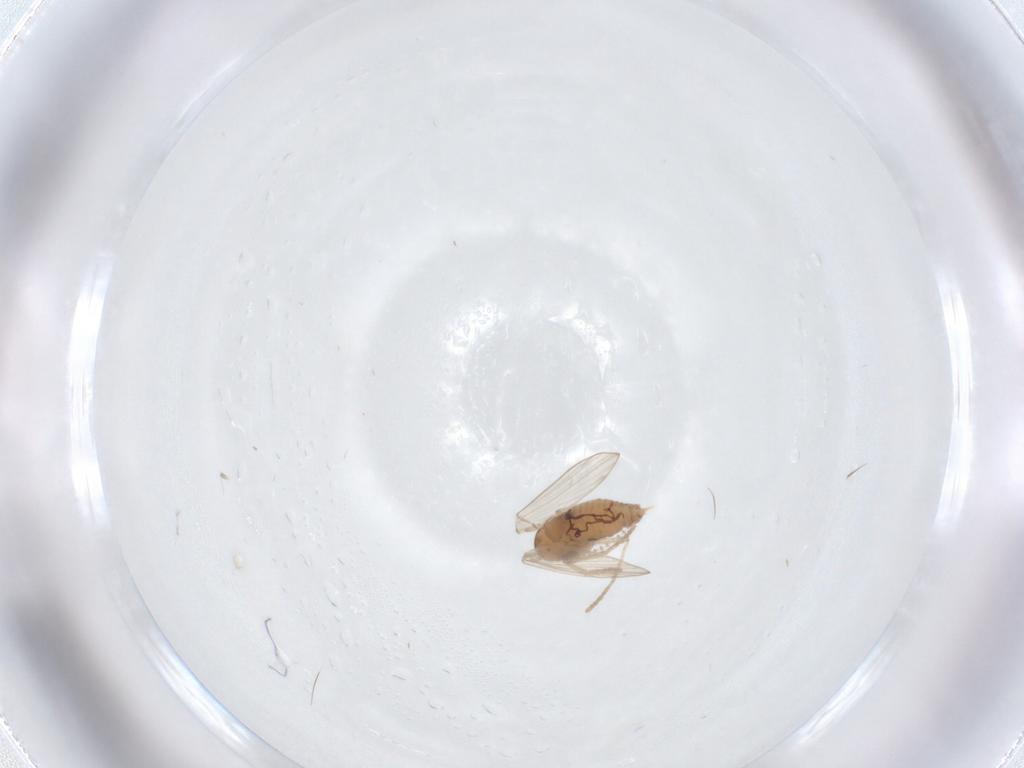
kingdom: Animalia
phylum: Arthropoda
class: Insecta
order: Diptera
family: Psychodidae
